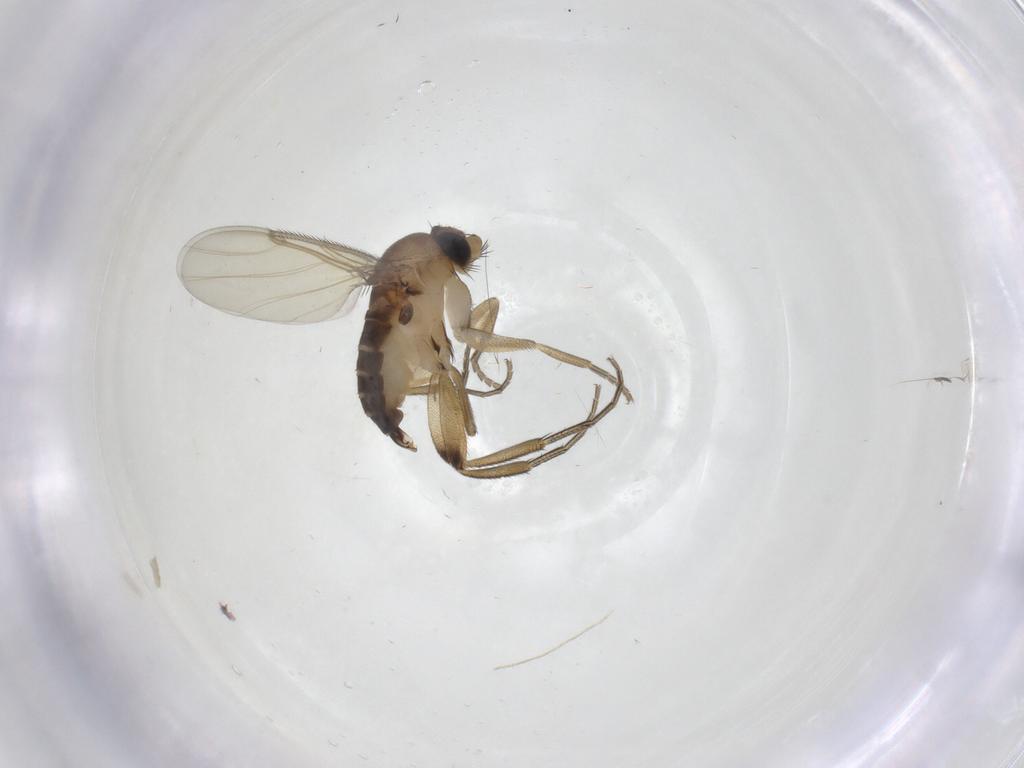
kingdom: Animalia
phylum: Arthropoda
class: Insecta
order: Diptera
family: Phoridae
